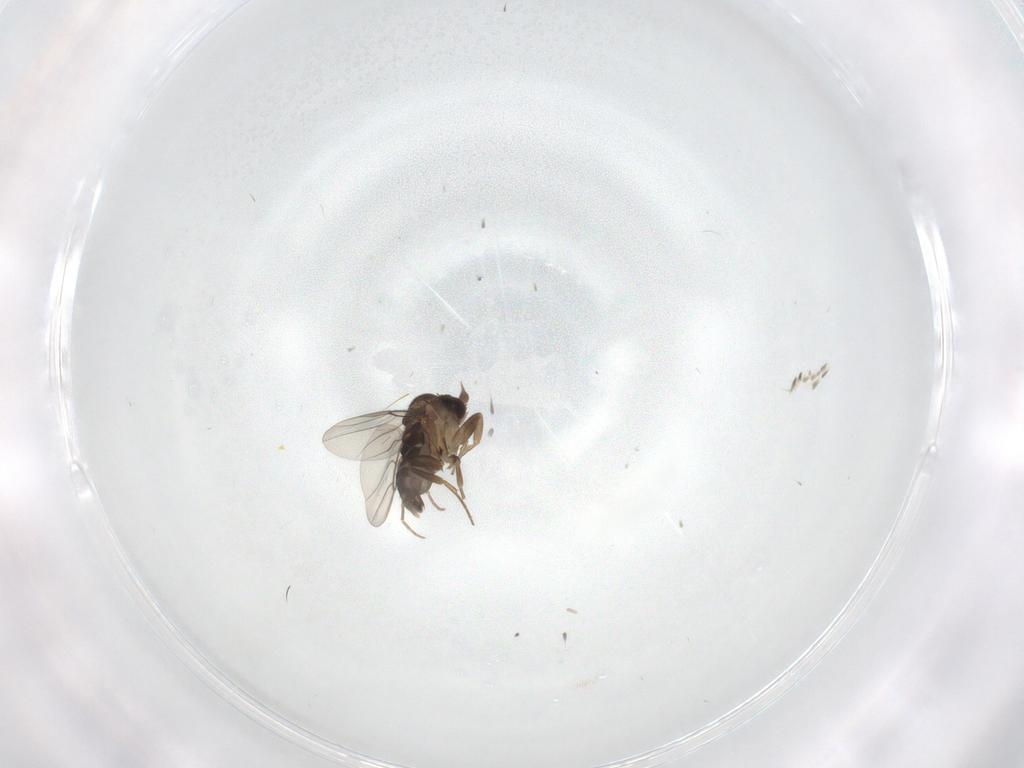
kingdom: Animalia
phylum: Arthropoda
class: Insecta
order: Diptera
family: Phoridae
